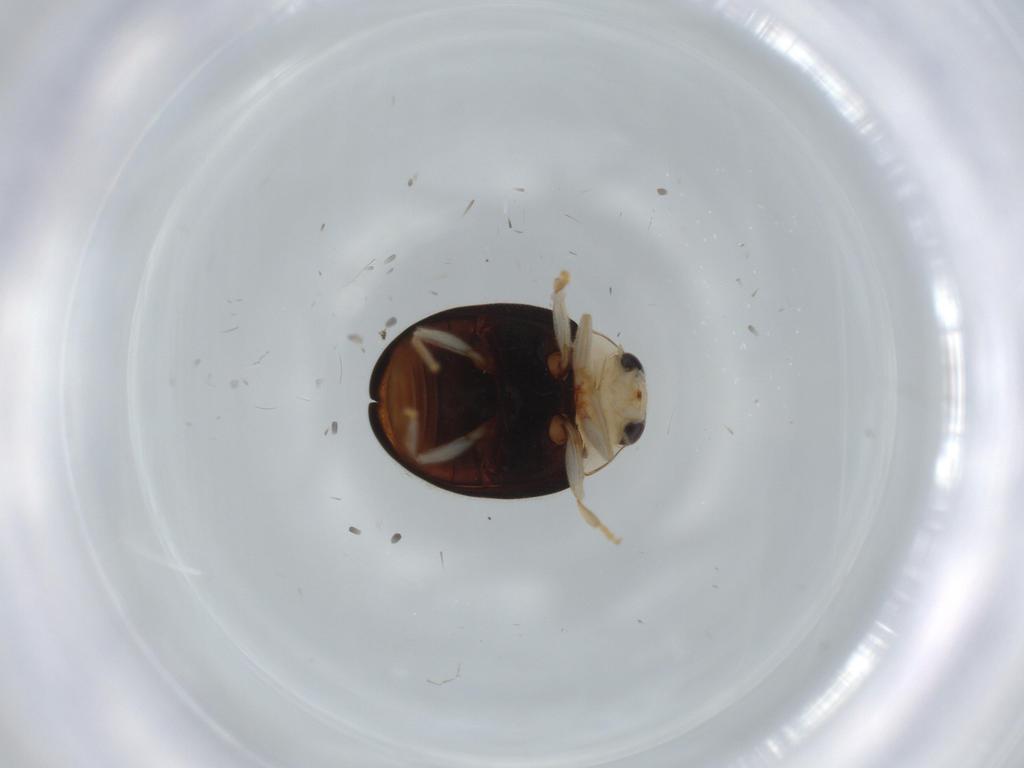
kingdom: Animalia
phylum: Arthropoda
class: Insecta
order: Coleoptera
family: Coccinellidae
